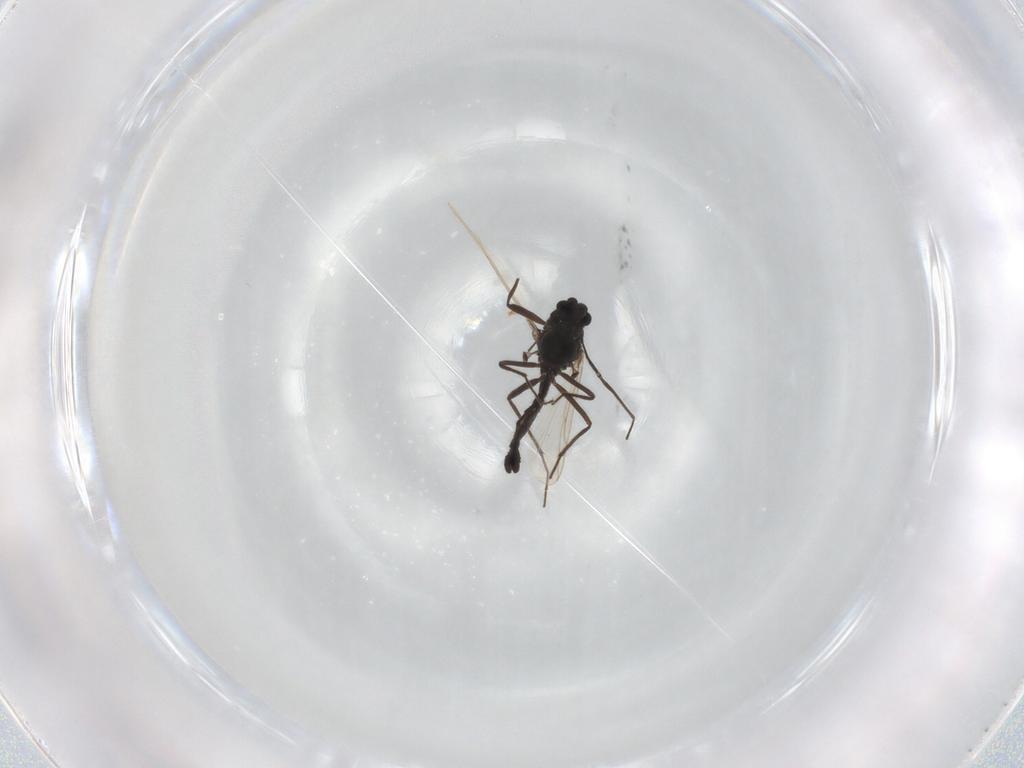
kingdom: Animalia
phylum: Arthropoda
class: Insecta
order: Diptera
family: Chironomidae
